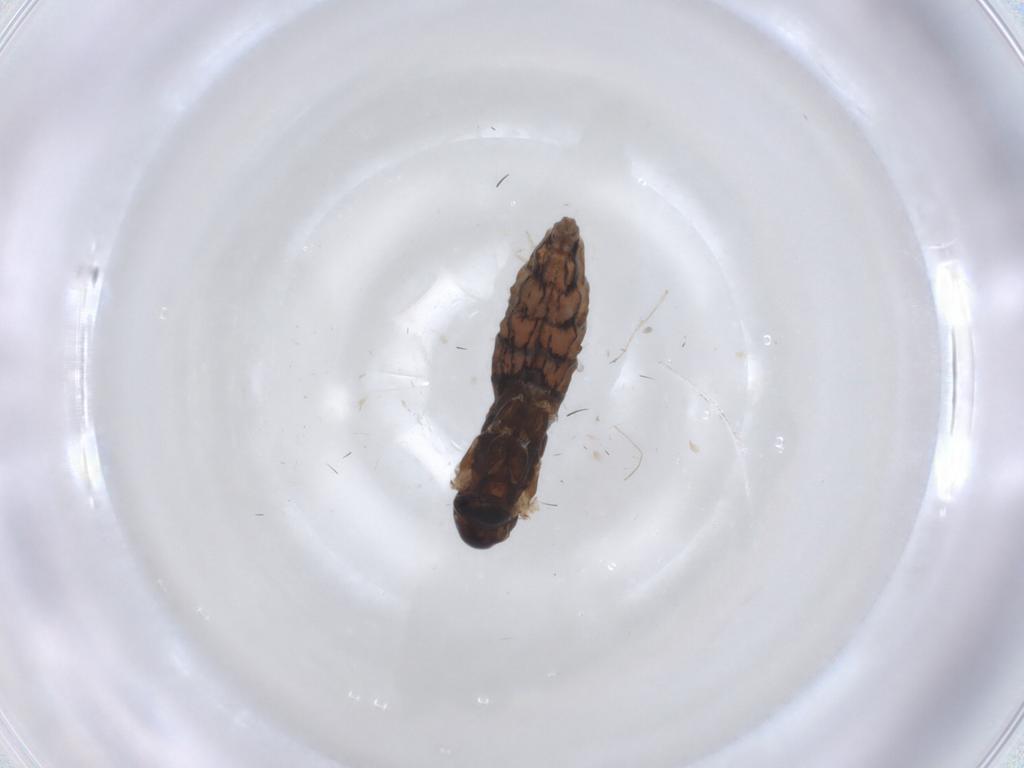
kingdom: Animalia
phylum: Arthropoda
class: Insecta
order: Diptera
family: Cecidomyiidae
